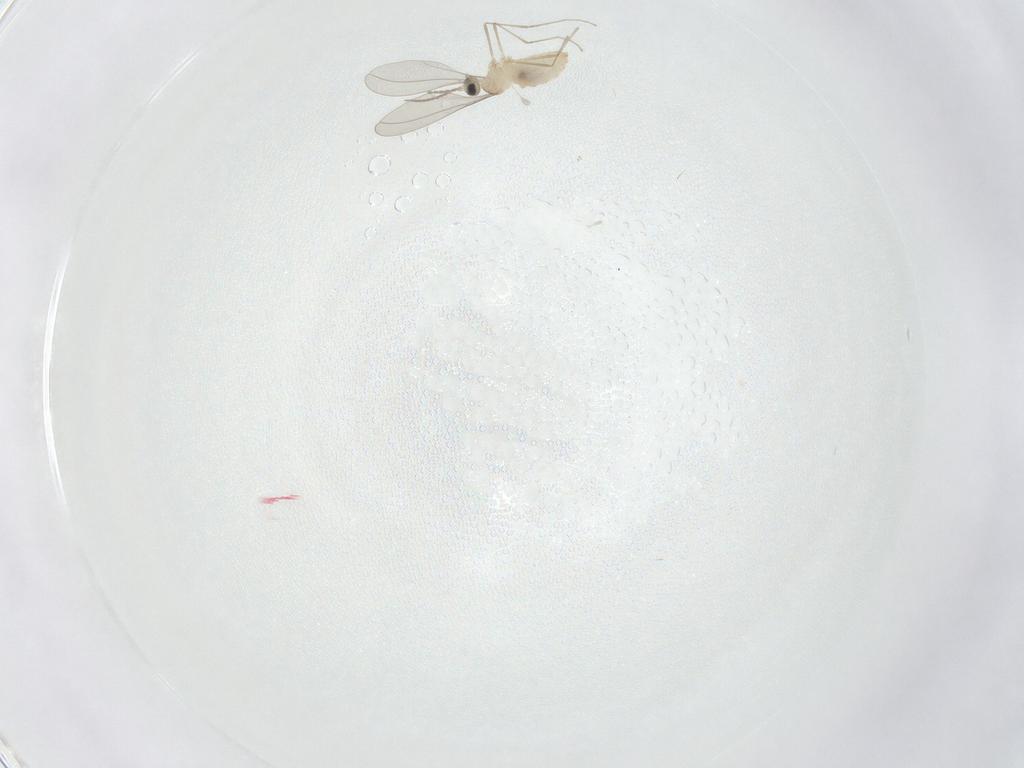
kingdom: Animalia
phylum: Arthropoda
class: Insecta
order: Diptera
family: Cecidomyiidae
